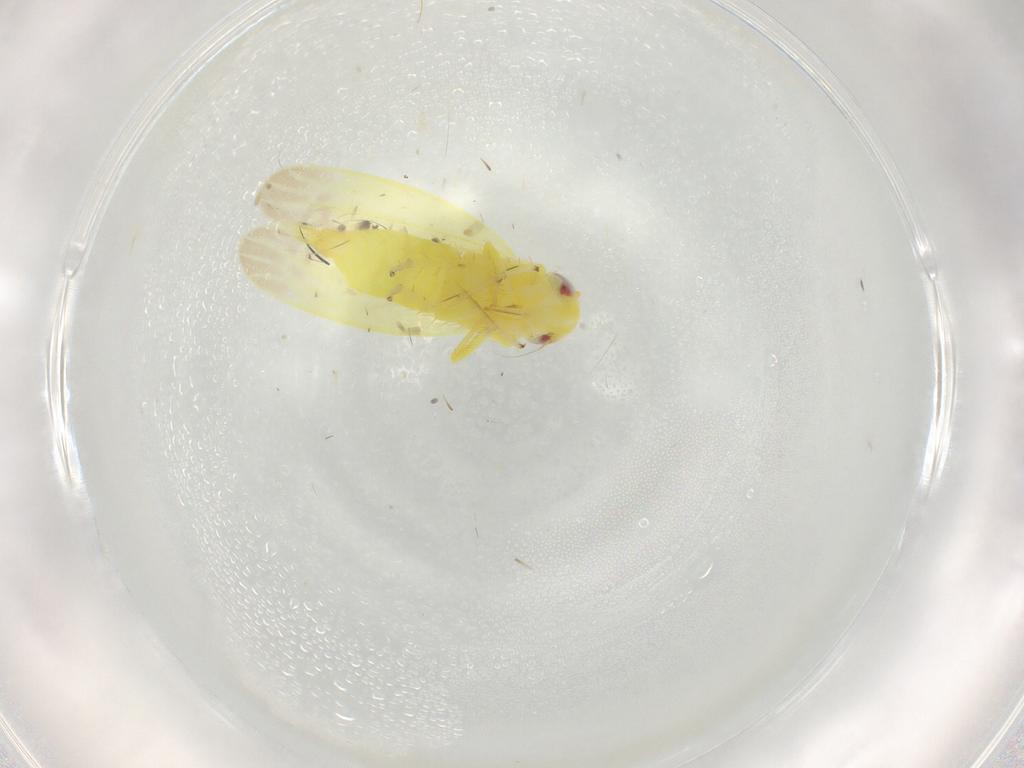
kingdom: Animalia
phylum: Arthropoda
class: Insecta
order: Hemiptera
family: Cicadellidae
